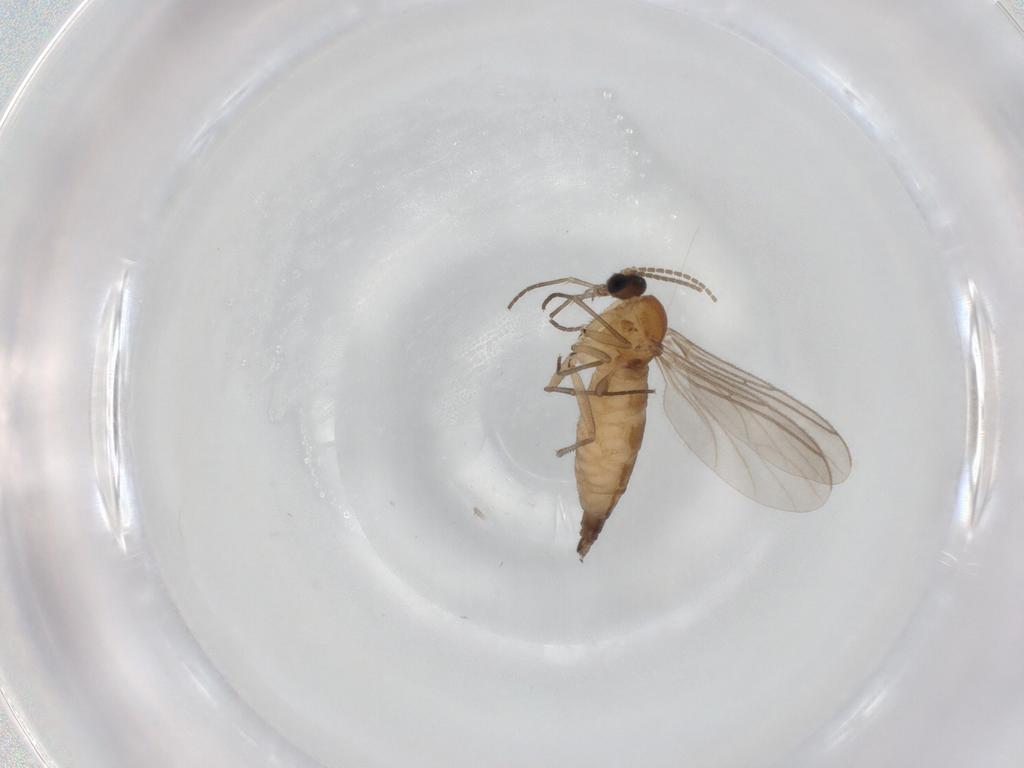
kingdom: Animalia
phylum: Arthropoda
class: Insecta
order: Diptera
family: Sciaridae
